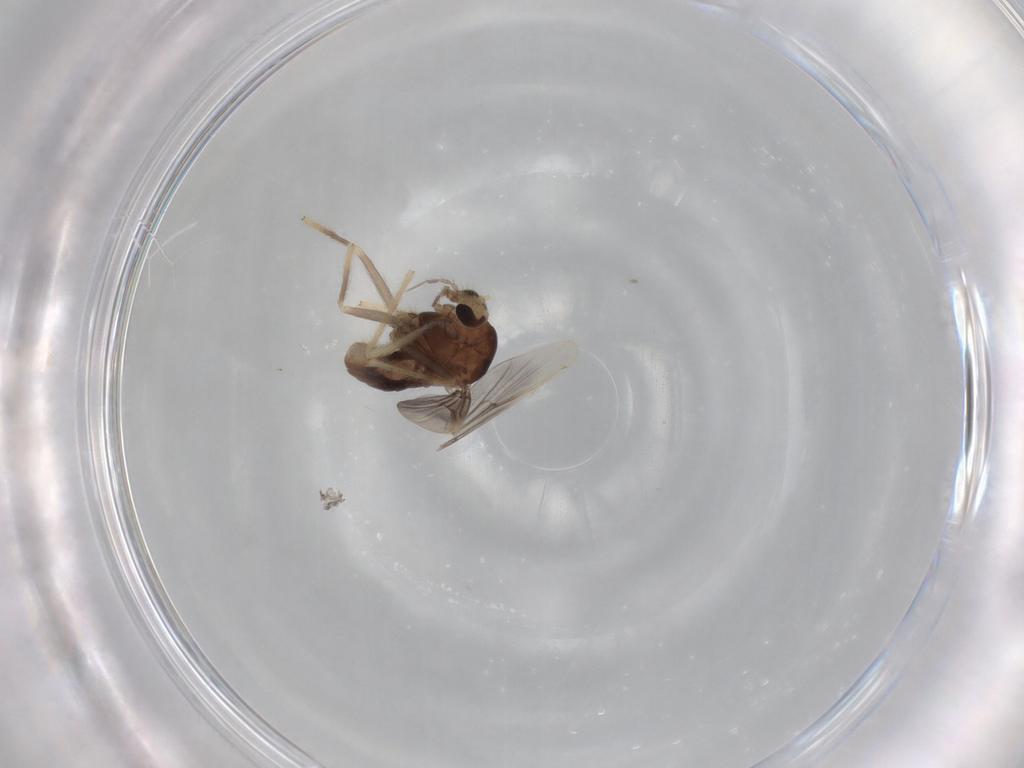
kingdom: Animalia
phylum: Arthropoda
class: Insecta
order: Diptera
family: Chironomidae
